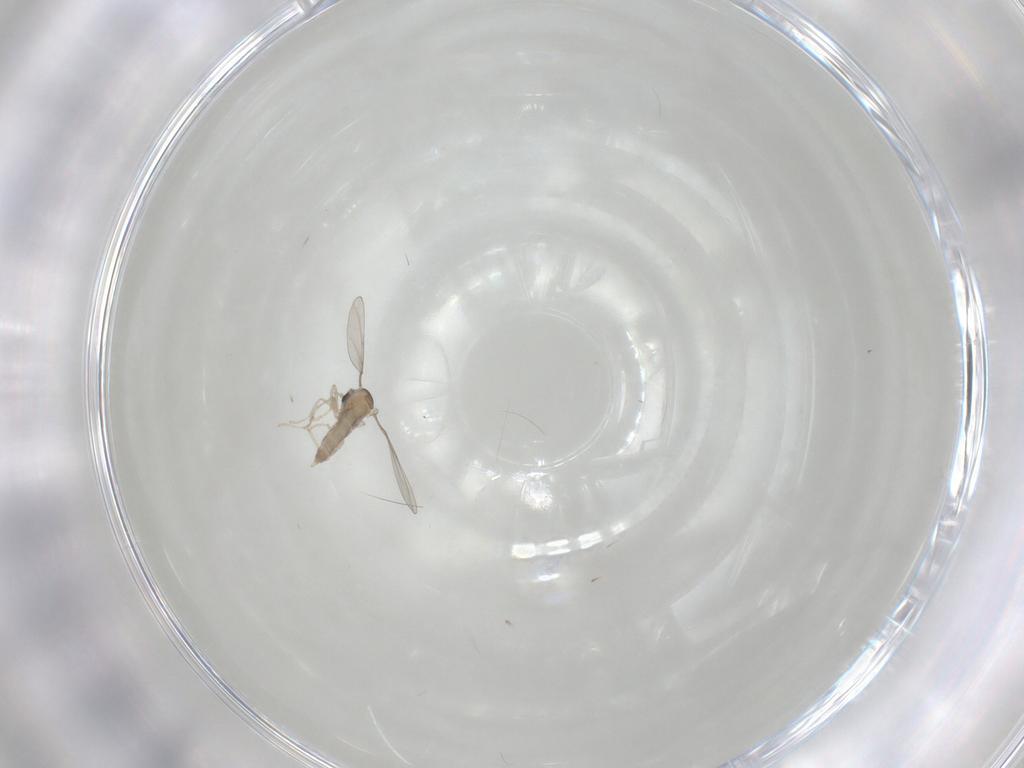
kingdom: Animalia
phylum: Arthropoda
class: Insecta
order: Diptera
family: Cecidomyiidae
